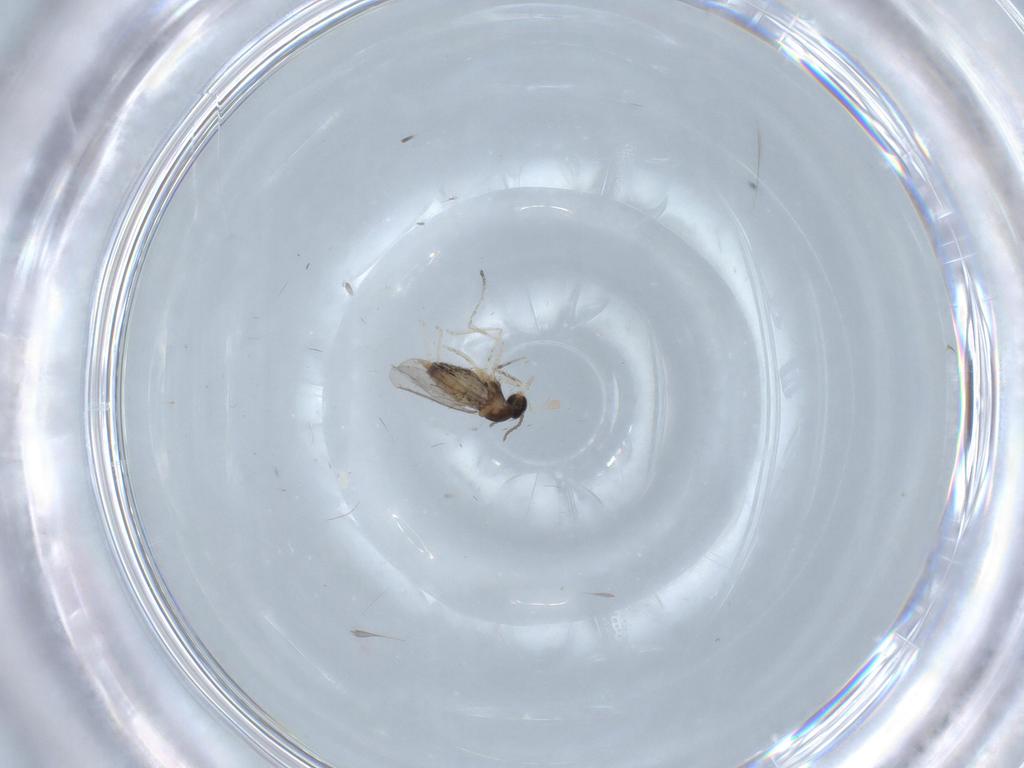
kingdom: Animalia
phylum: Arthropoda
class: Insecta
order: Diptera
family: Cecidomyiidae
